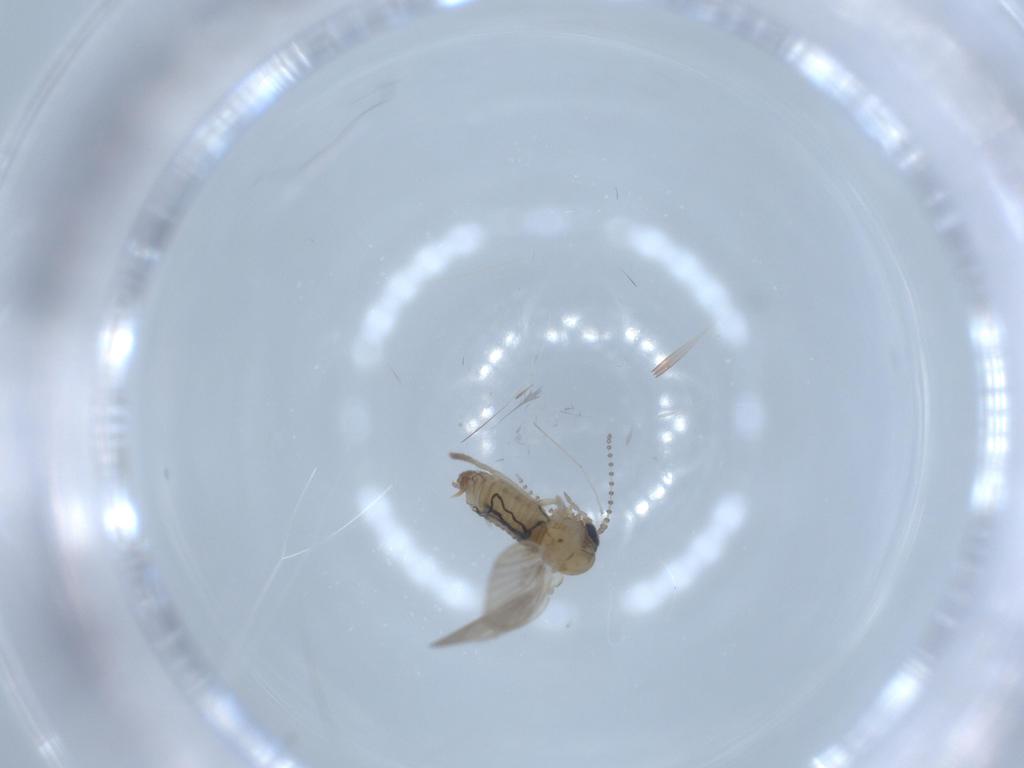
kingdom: Animalia
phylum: Arthropoda
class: Insecta
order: Diptera
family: Psychodidae
